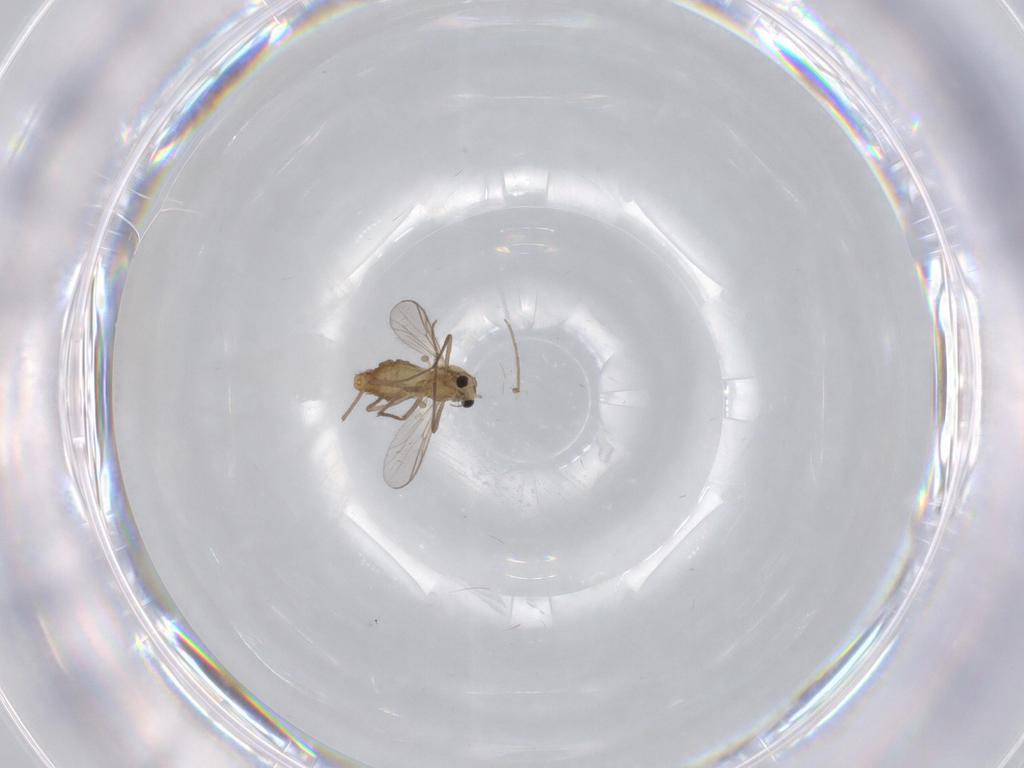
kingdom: Animalia
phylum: Arthropoda
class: Insecta
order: Diptera
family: Chironomidae
